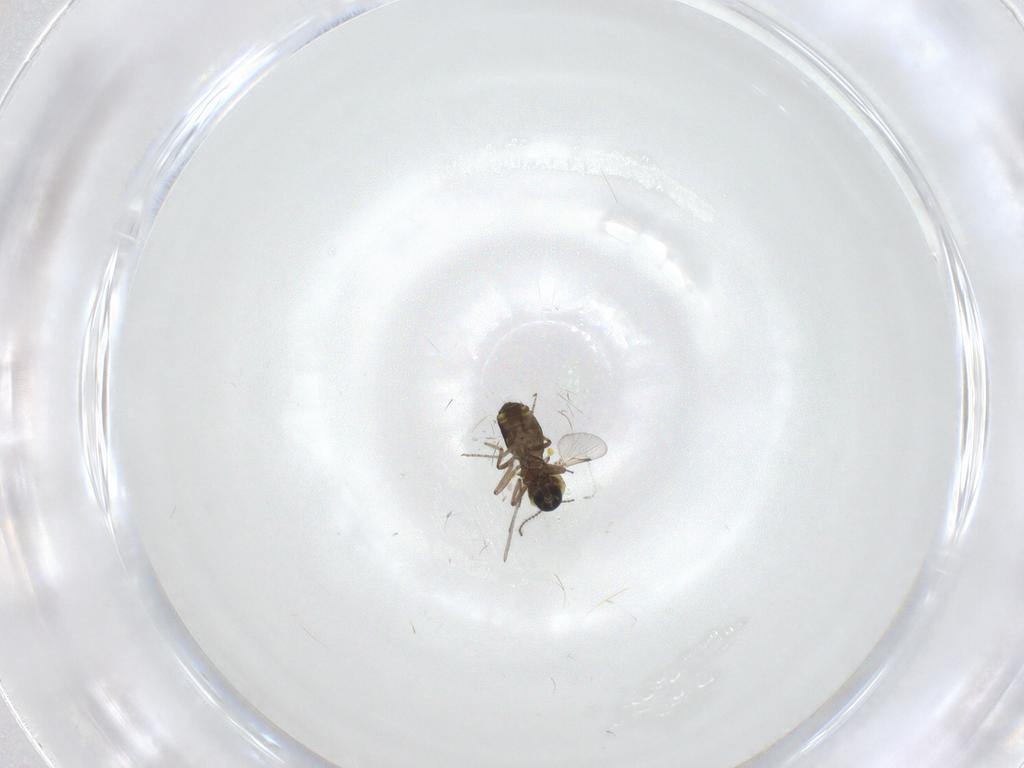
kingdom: Animalia
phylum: Arthropoda
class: Insecta
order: Diptera
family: Ceratopogonidae
